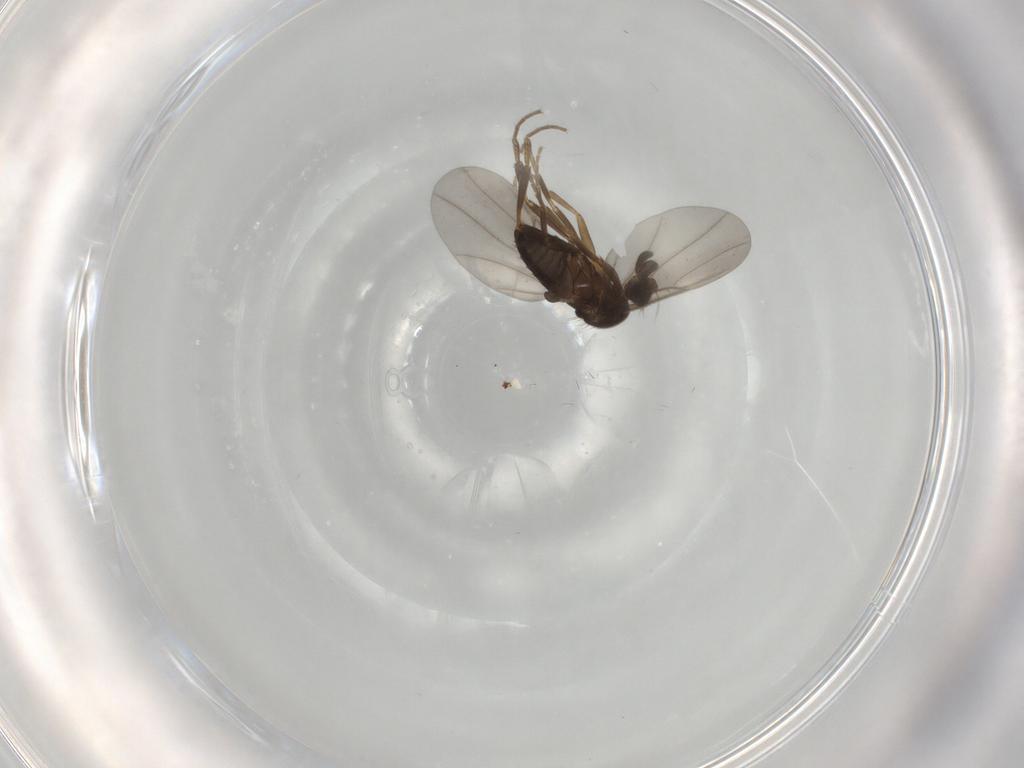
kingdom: Animalia
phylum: Arthropoda
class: Insecta
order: Diptera
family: Sciaridae
